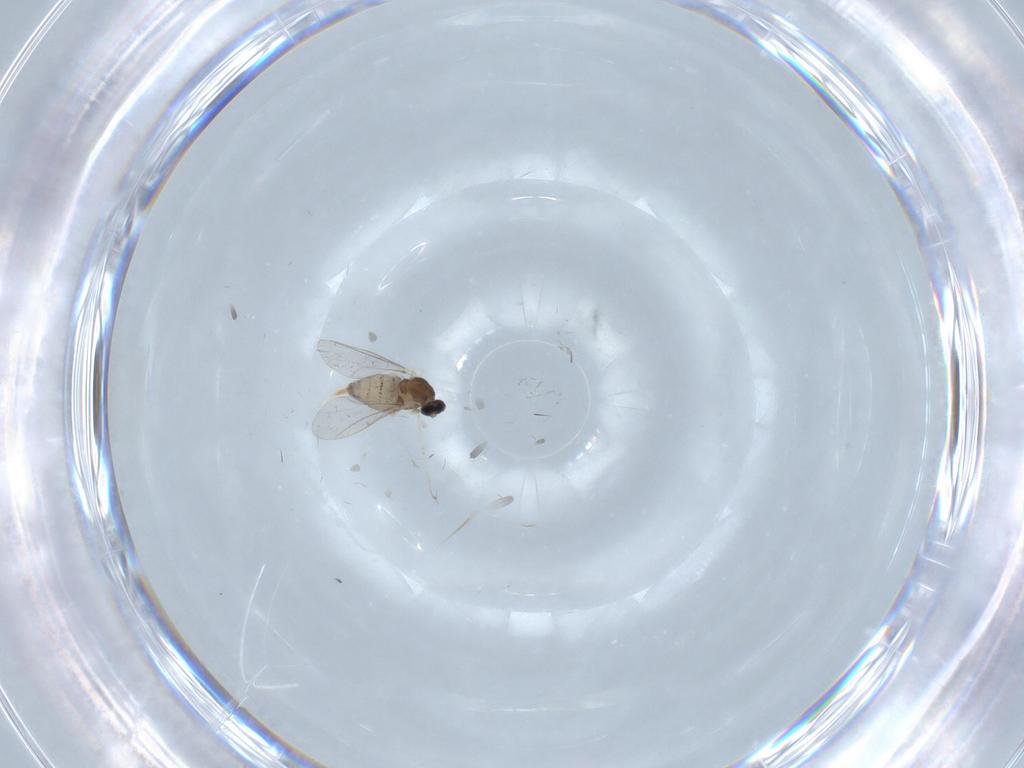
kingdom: Animalia
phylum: Arthropoda
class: Insecta
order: Diptera
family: Cecidomyiidae
